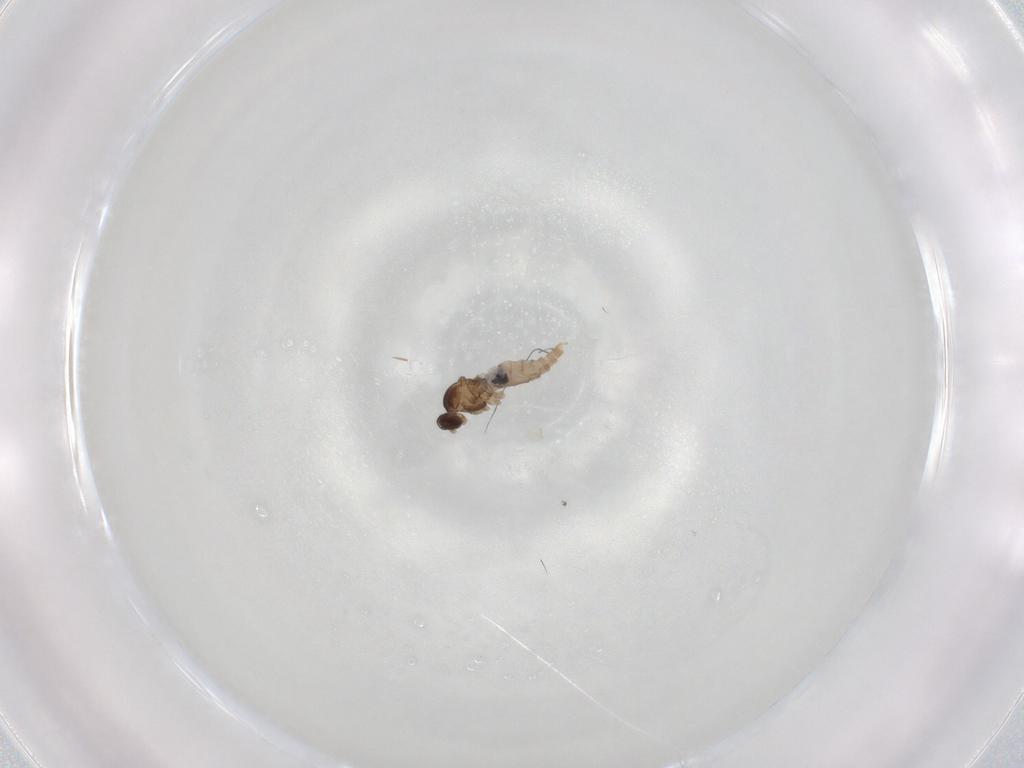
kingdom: Animalia
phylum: Arthropoda
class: Insecta
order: Diptera
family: Cecidomyiidae
